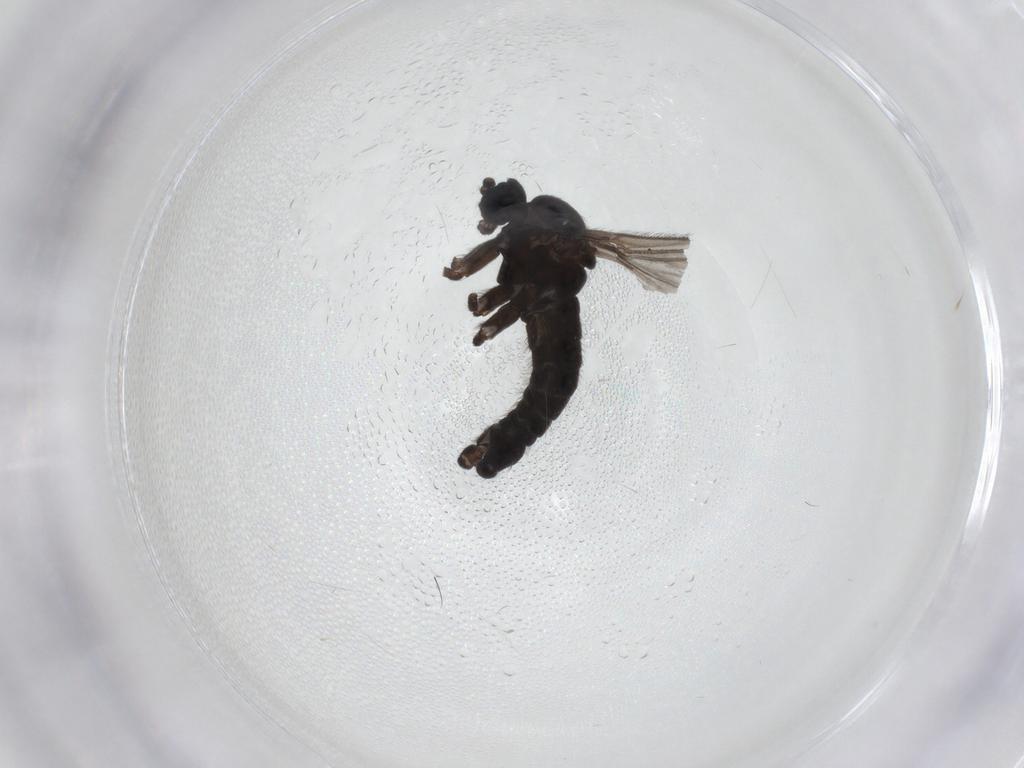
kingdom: Animalia
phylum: Arthropoda
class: Insecta
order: Diptera
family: Sciaridae
